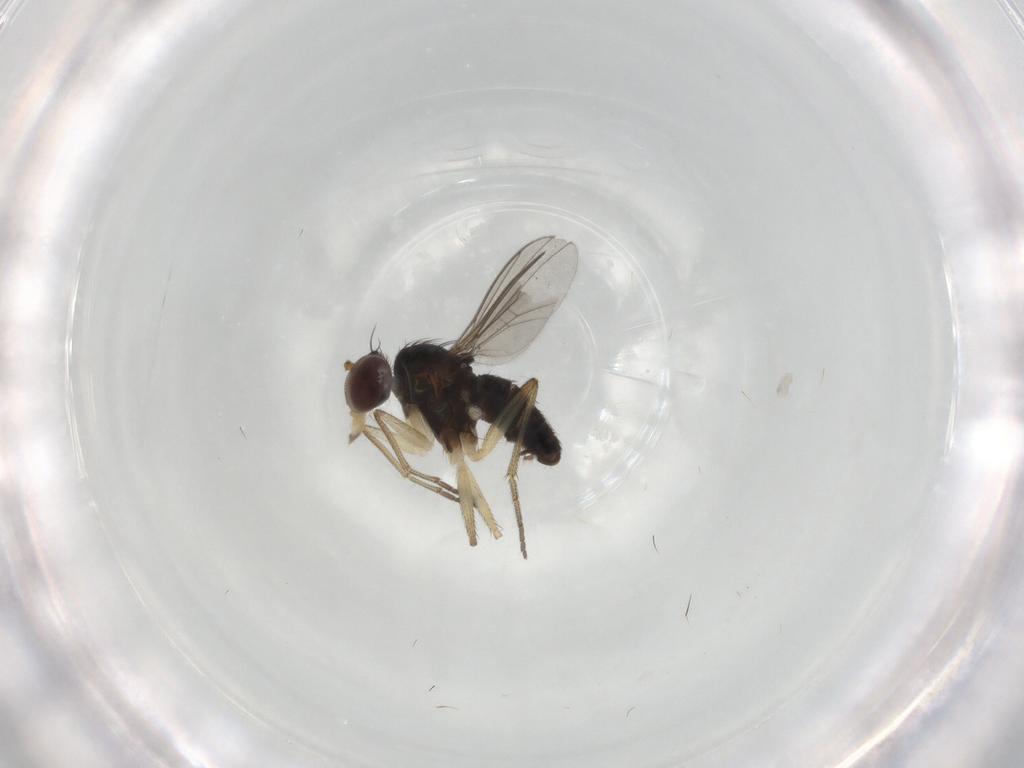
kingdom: Animalia
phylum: Arthropoda
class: Insecta
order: Diptera
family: Dolichopodidae
